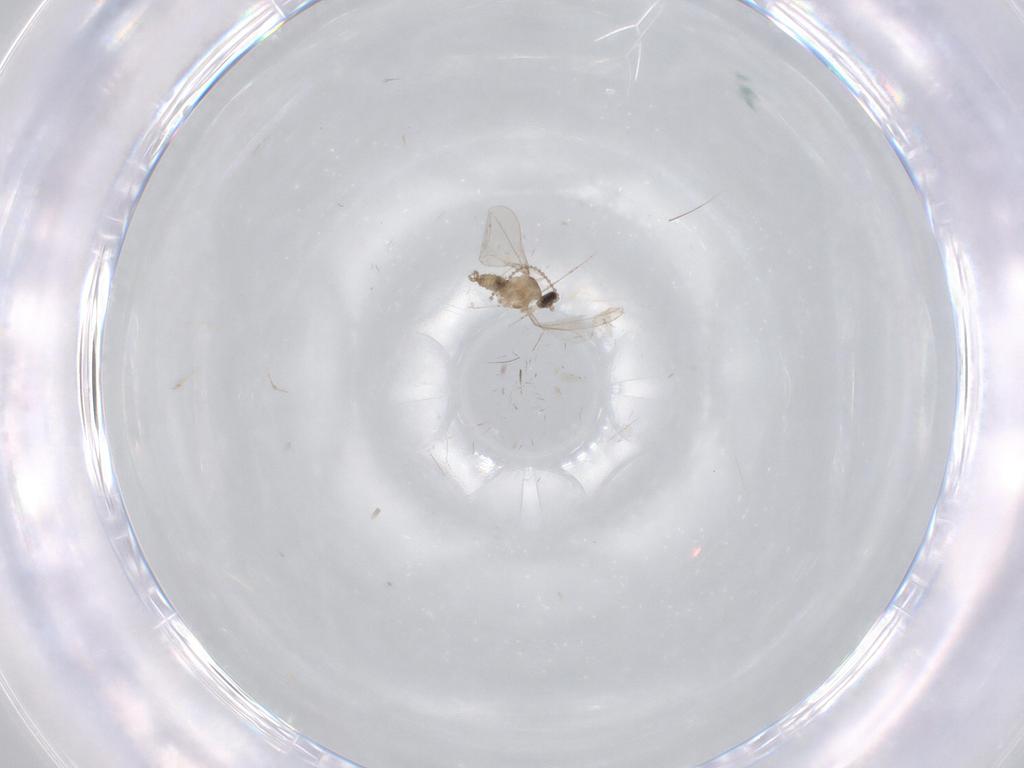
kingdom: Animalia
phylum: Arthropoda
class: Insecta
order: Diptera
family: Cecidomyiidae
